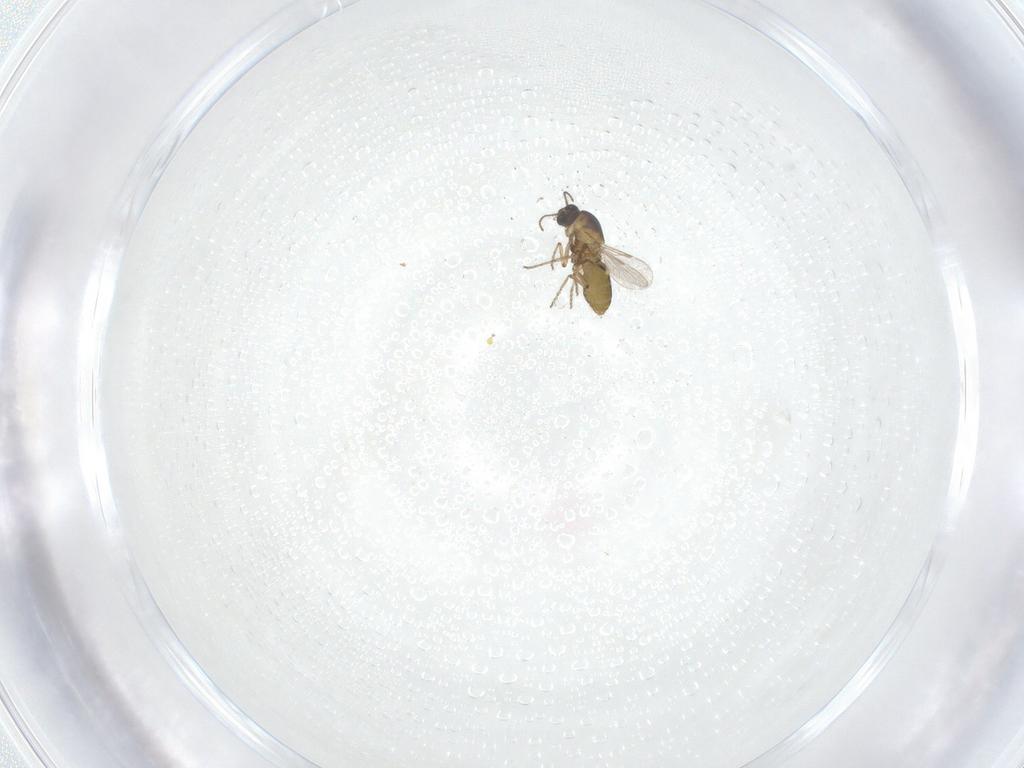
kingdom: Animalia
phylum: Arthropoda
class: Insecta
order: Diptera
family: Ceratopogonidae
